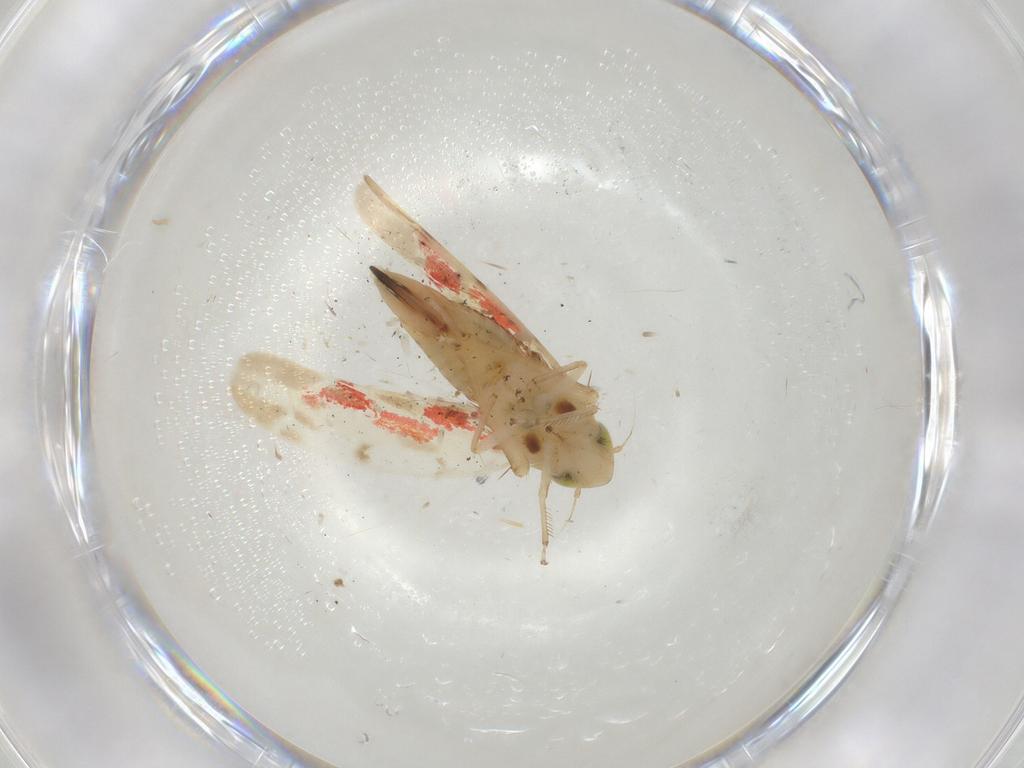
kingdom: Animalia
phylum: Arthropoda
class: Insecta
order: Hemiptera
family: Cicadellidae
